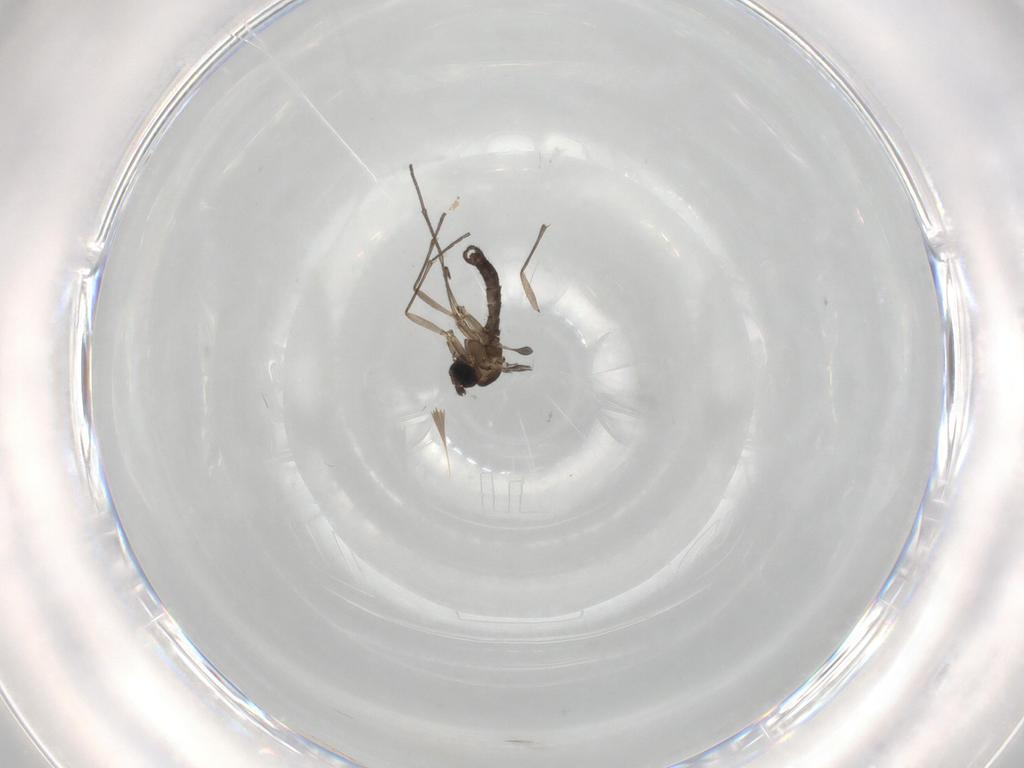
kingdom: Animalia
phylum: Arthropoda
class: Insecta
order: Diptera
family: Sciaridae
